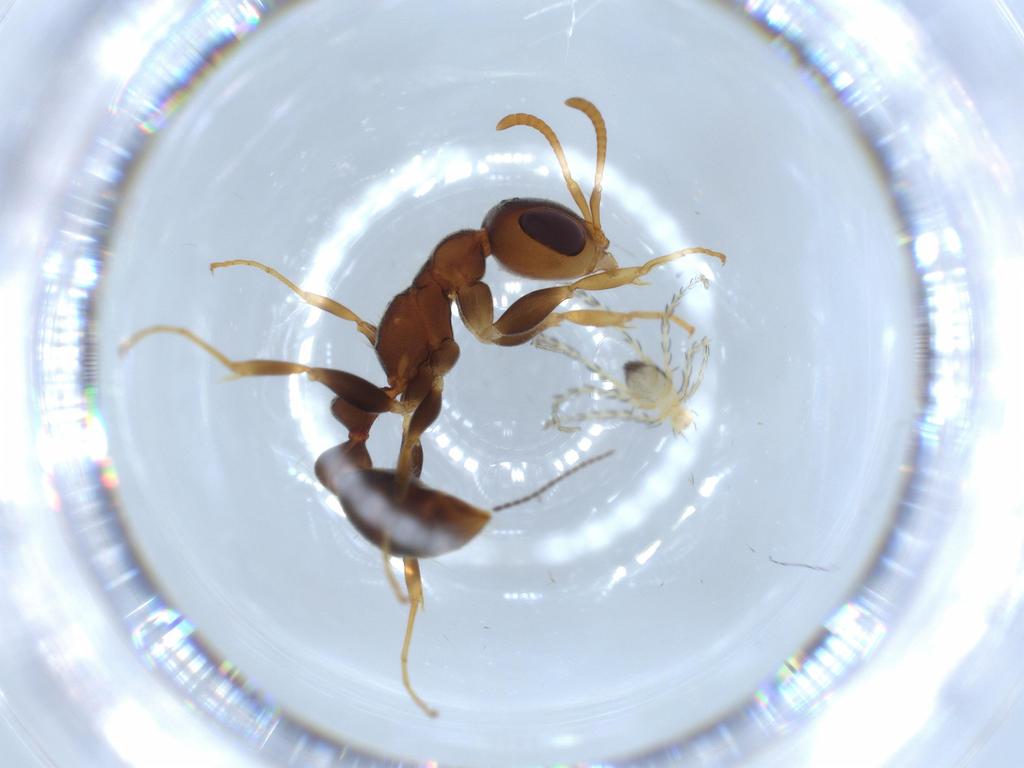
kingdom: Animalia
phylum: Arthropoda
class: Insecta
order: Hymenoptera
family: Formicidae
